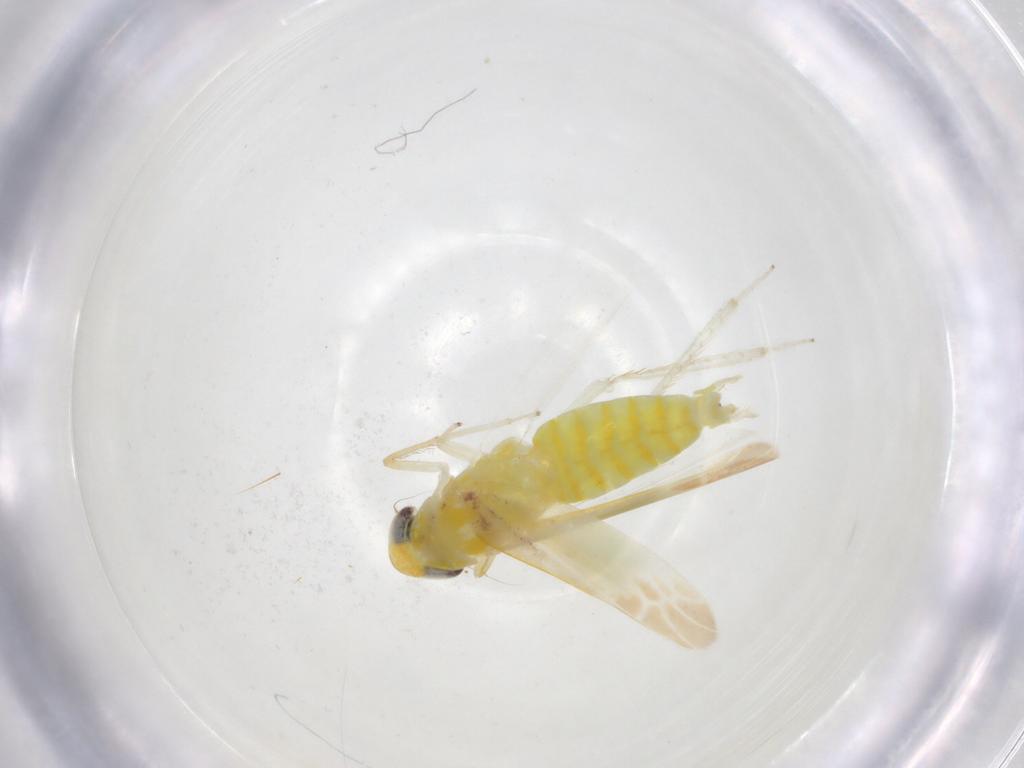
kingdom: Animalia
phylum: Arthropoda
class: Insecta
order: Hemiptera
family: Cicadellidae
